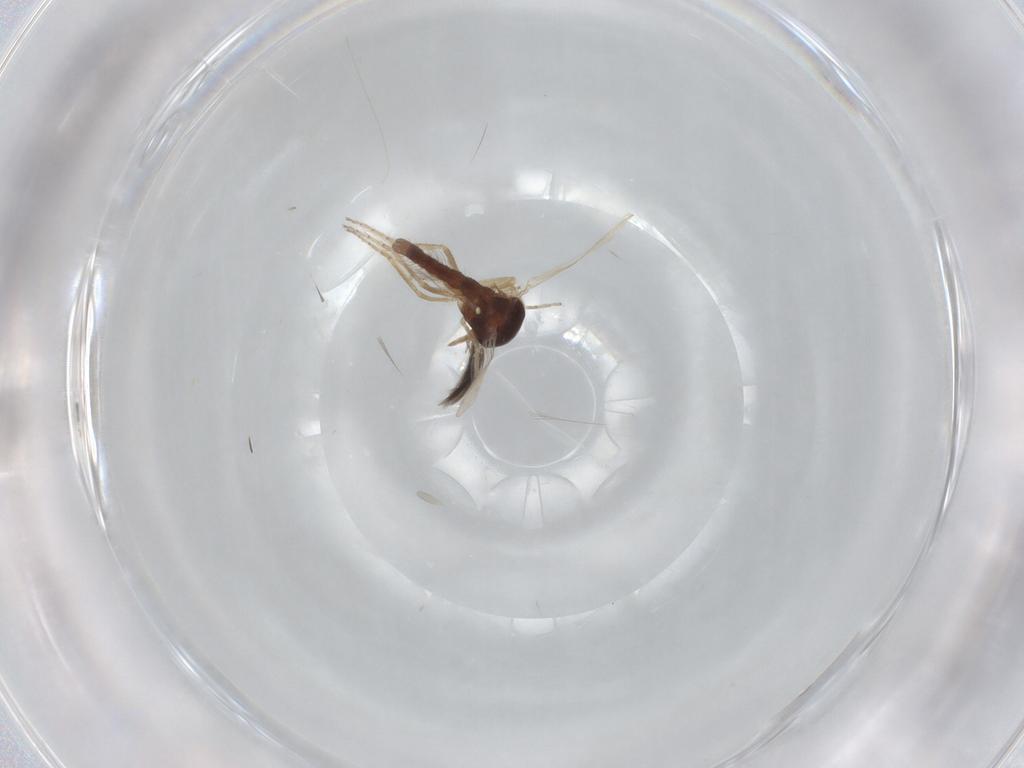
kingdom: Animalia
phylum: Arthropoda
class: Insecta
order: Diptera
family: Ceratopogonidae
